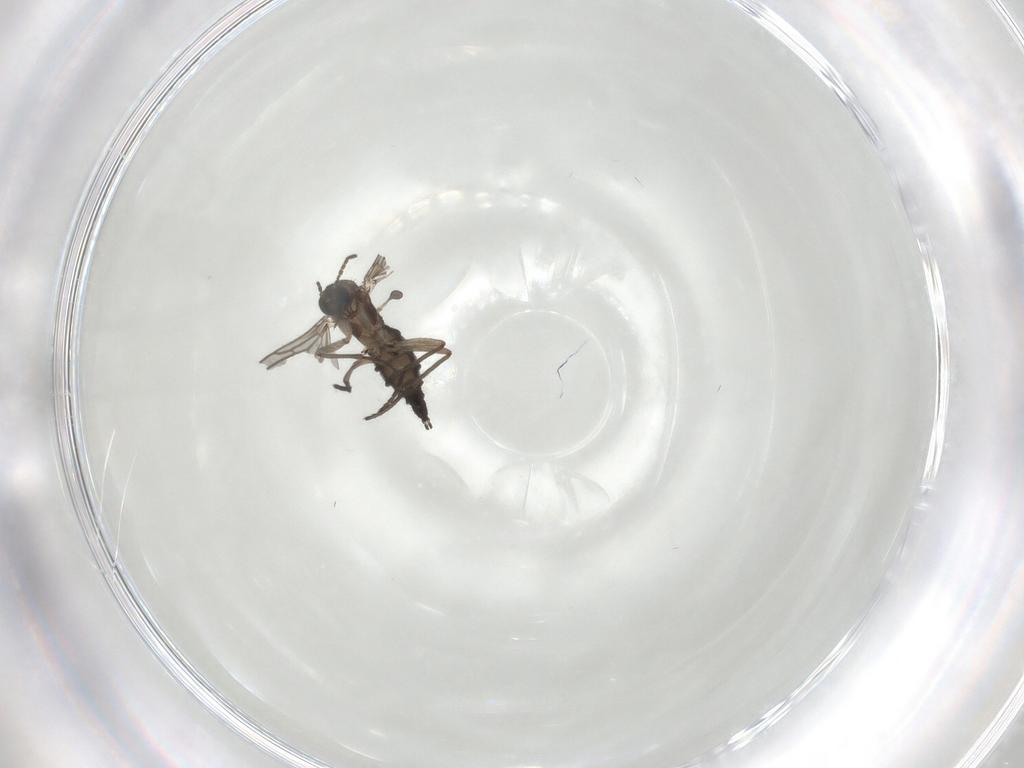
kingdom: Animalia
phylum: Arthropoda
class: Insecta
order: Diptera
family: Sciaridae
